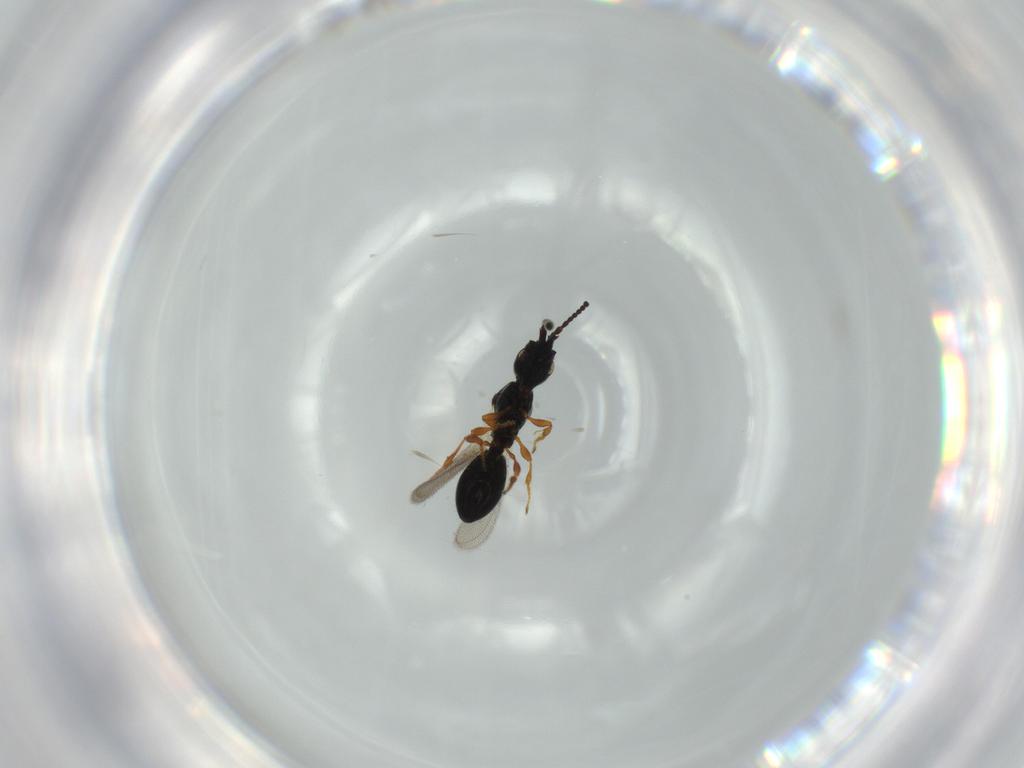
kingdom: Animalia
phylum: Arthropoda
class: Insecta
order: Hymenoptera
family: Diapriidae
